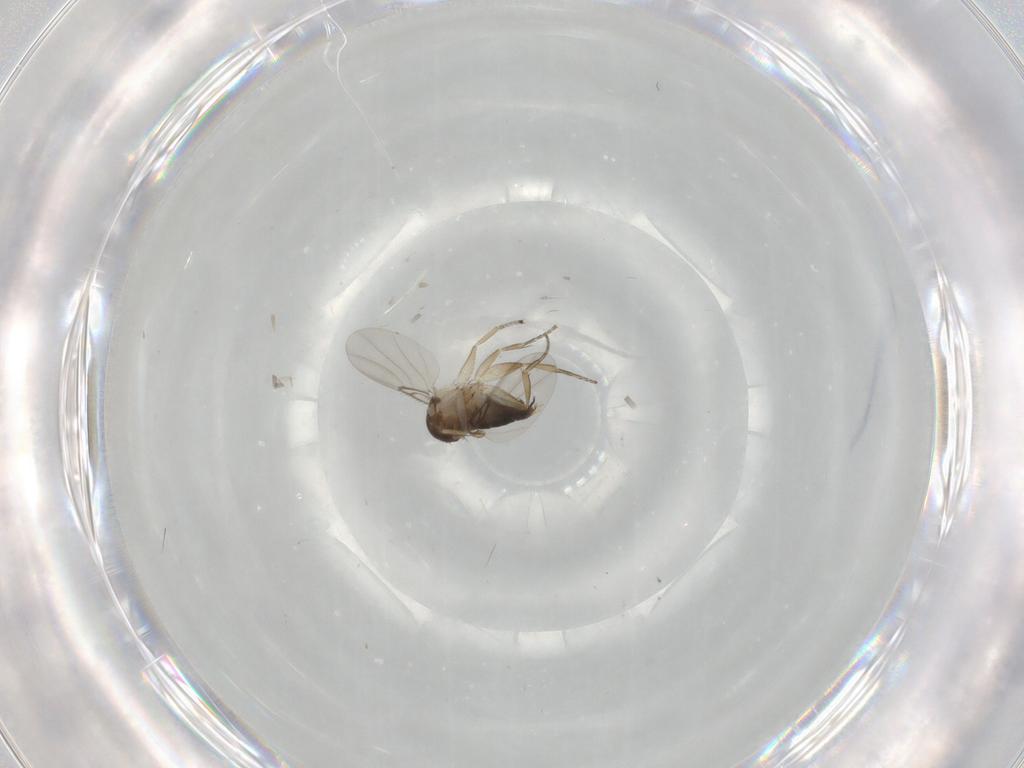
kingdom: Animalia
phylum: Arthropoda
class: Insecta
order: Diptera
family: Phoridae
